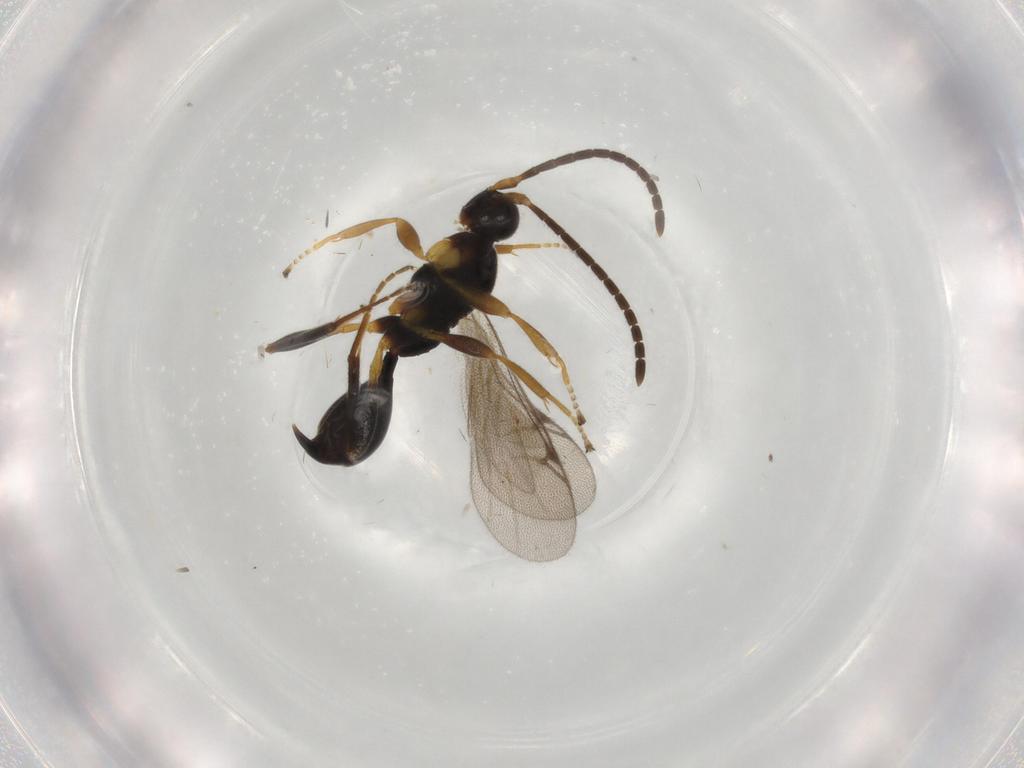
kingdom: Animalia
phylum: Arthropoda
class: Insecta
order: Hymenoptera
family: Proctotrupidae
